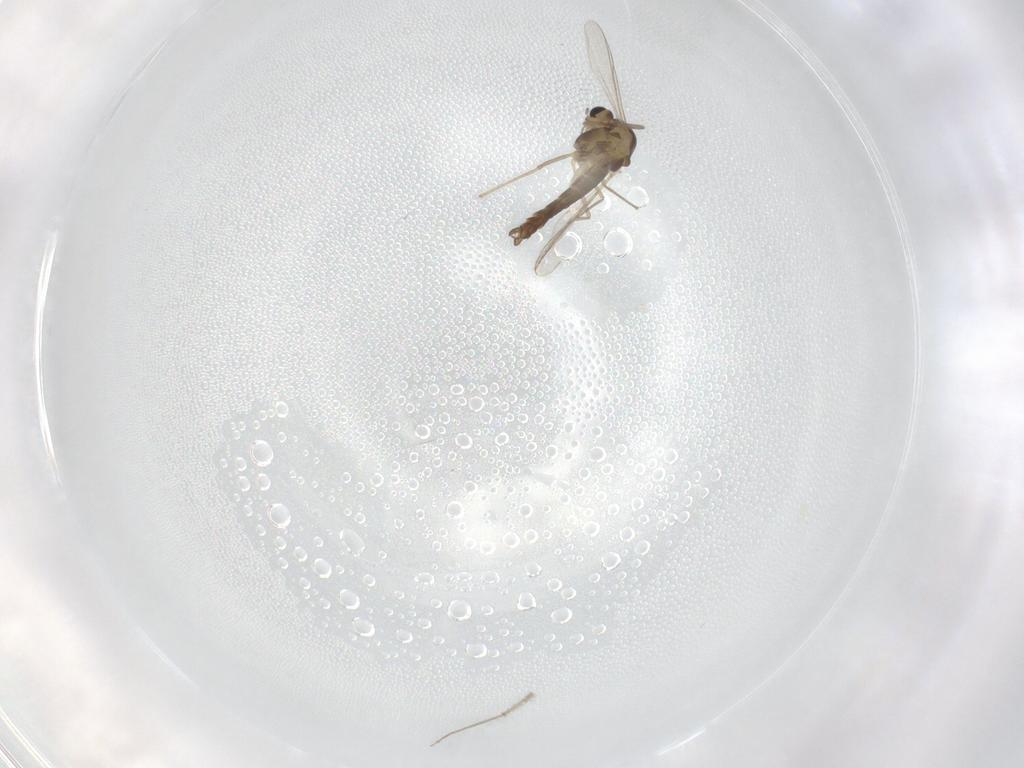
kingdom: Animalia
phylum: Arthropoda
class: Insecta
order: Diptera
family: Chironomidae
